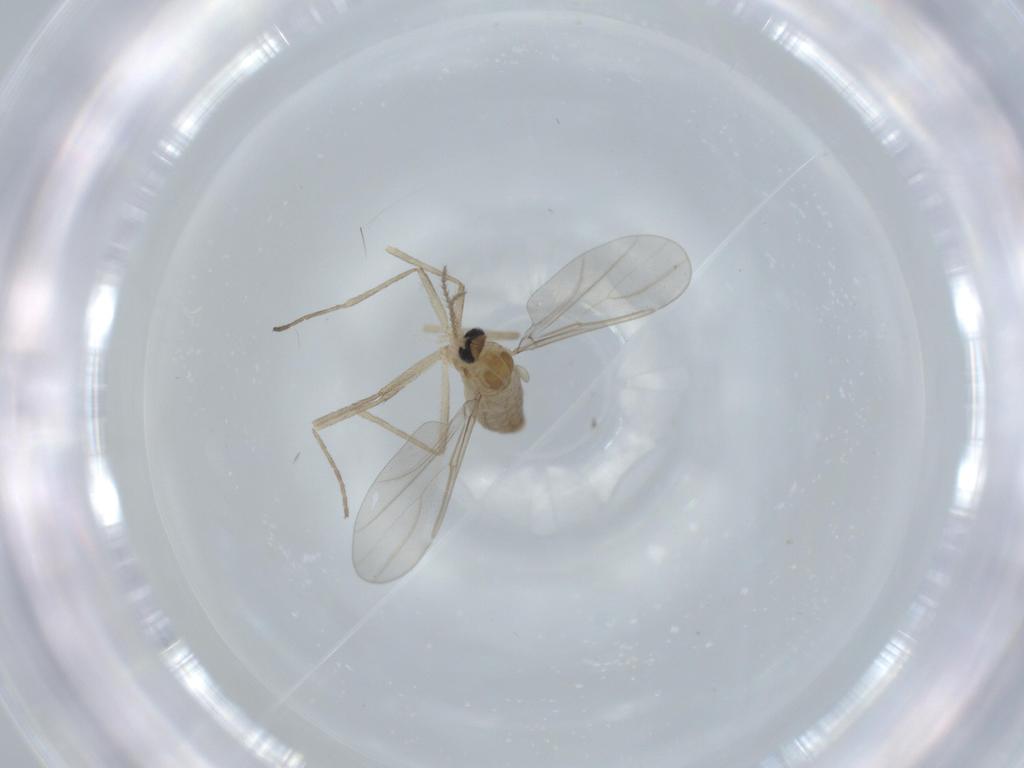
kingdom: Animalia
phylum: Arthropoda
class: Insecta
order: Diptera
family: Cecidomyiidae
